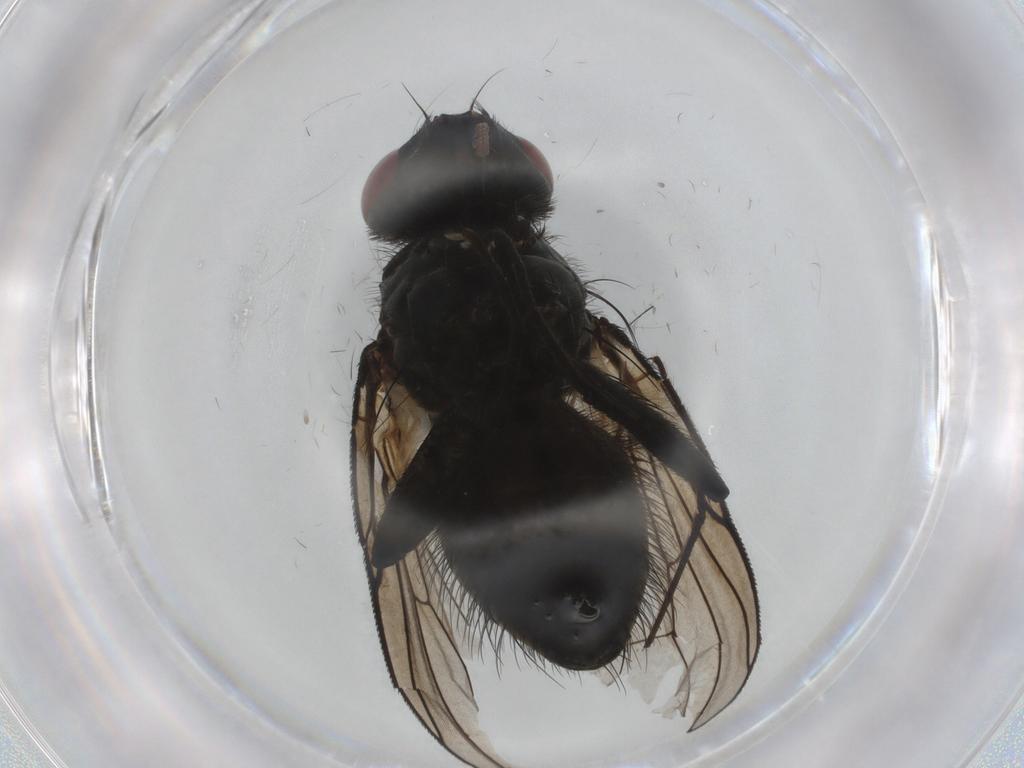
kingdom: Animalia
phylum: Arthropoda
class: Insecta
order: Diptera
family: Muscidae
